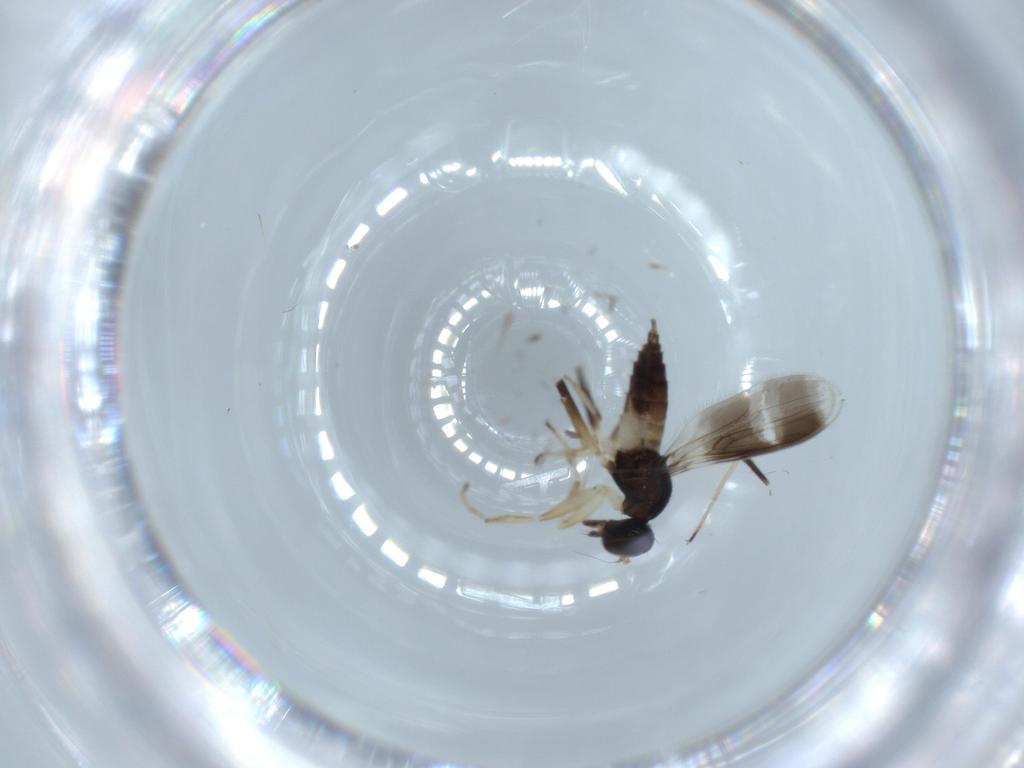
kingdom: Animalia
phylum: Arthropoda
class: Insecta
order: Diptera
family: Hybotidae
